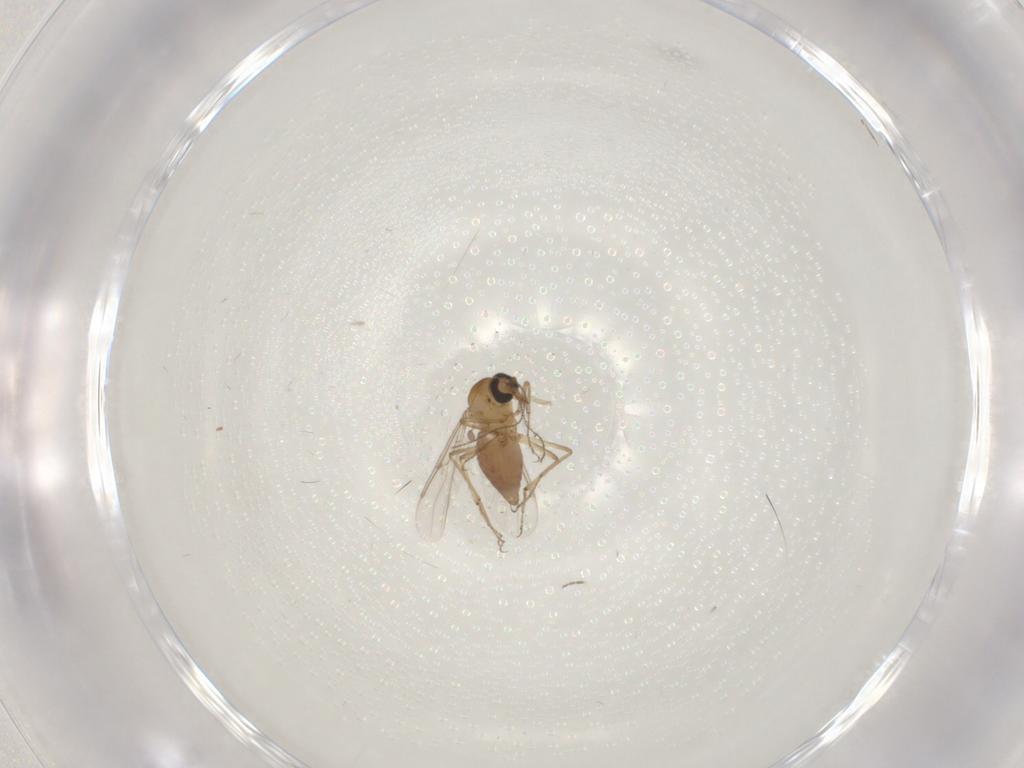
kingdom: Animalia
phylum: Arthropoda
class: Insecta
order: Diptera
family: Ceratopogonidae
